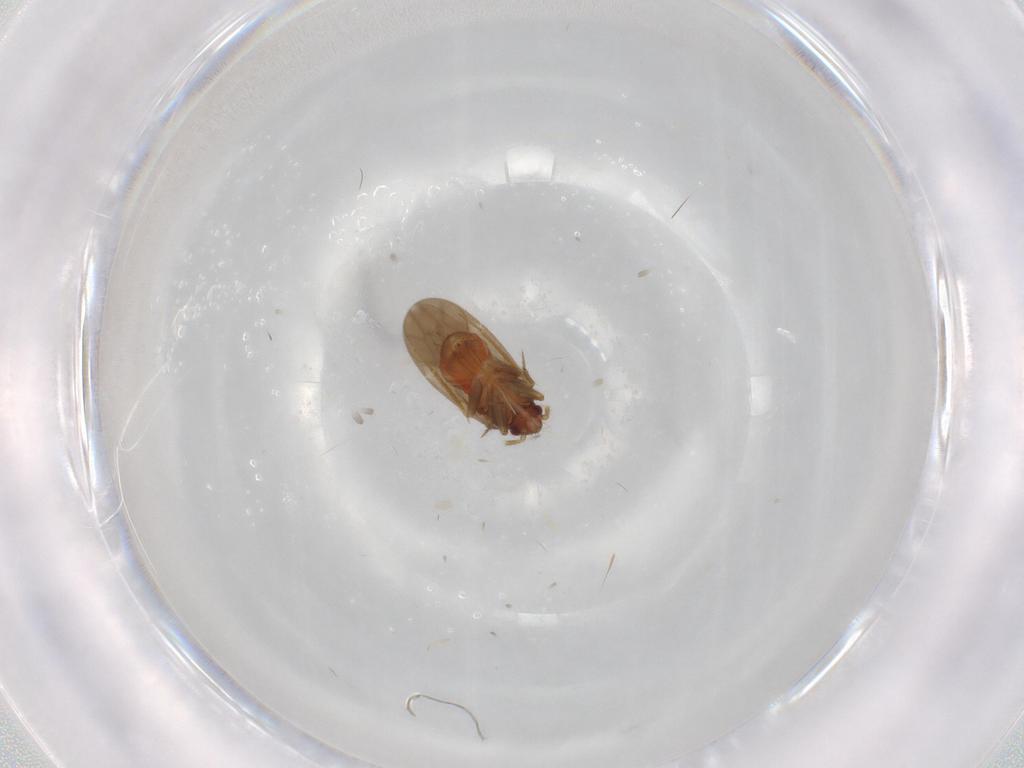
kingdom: Animalia
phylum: Arthropoda
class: Insecta
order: Hemiptera
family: Ceratocombidae
